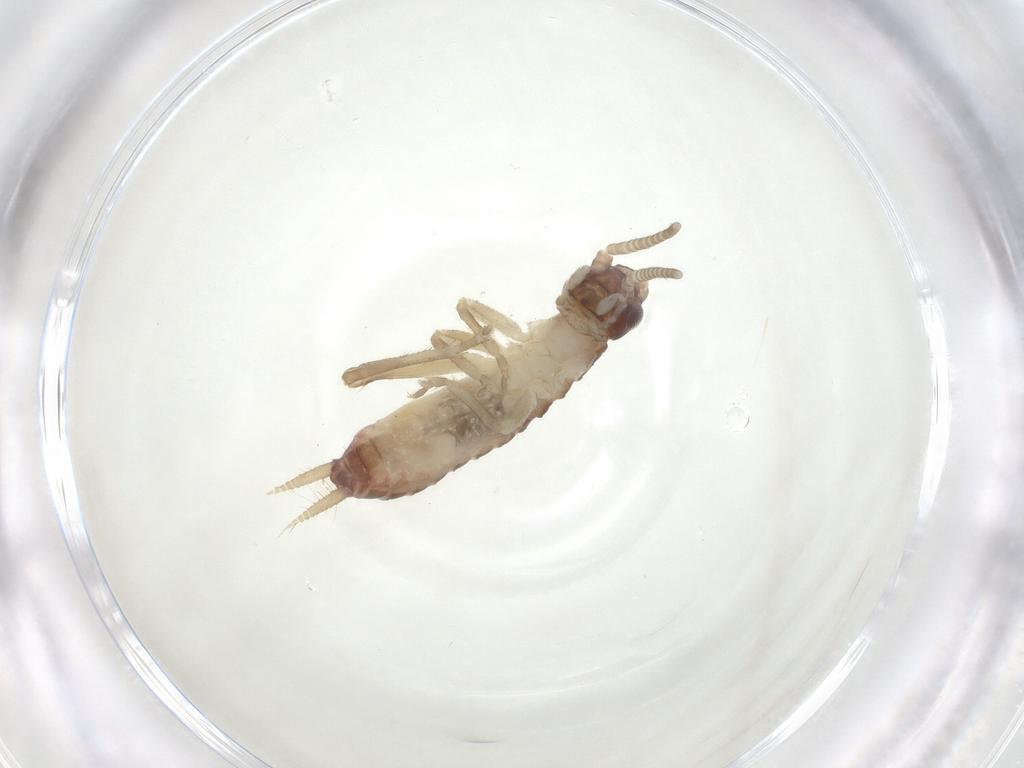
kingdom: Animalia
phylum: Arthropoda
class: Insecta
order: Orthoptera
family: Gryllidae
